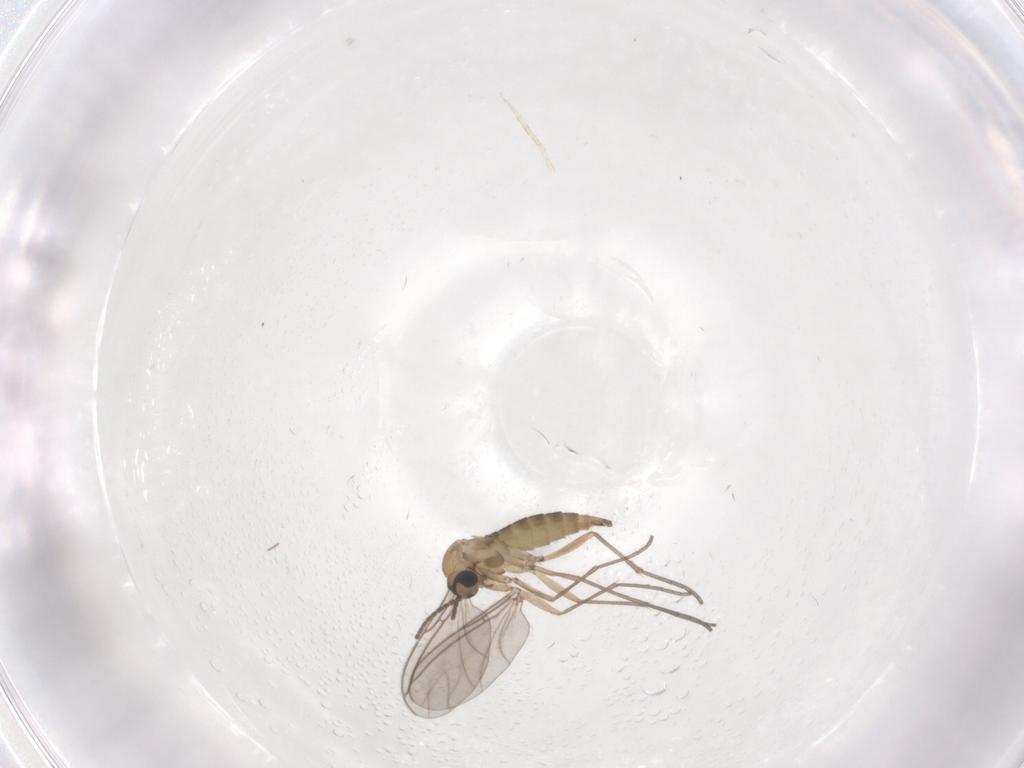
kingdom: Animalia
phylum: Arthropoda
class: Insecta
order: Diptera
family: Sciaridae
